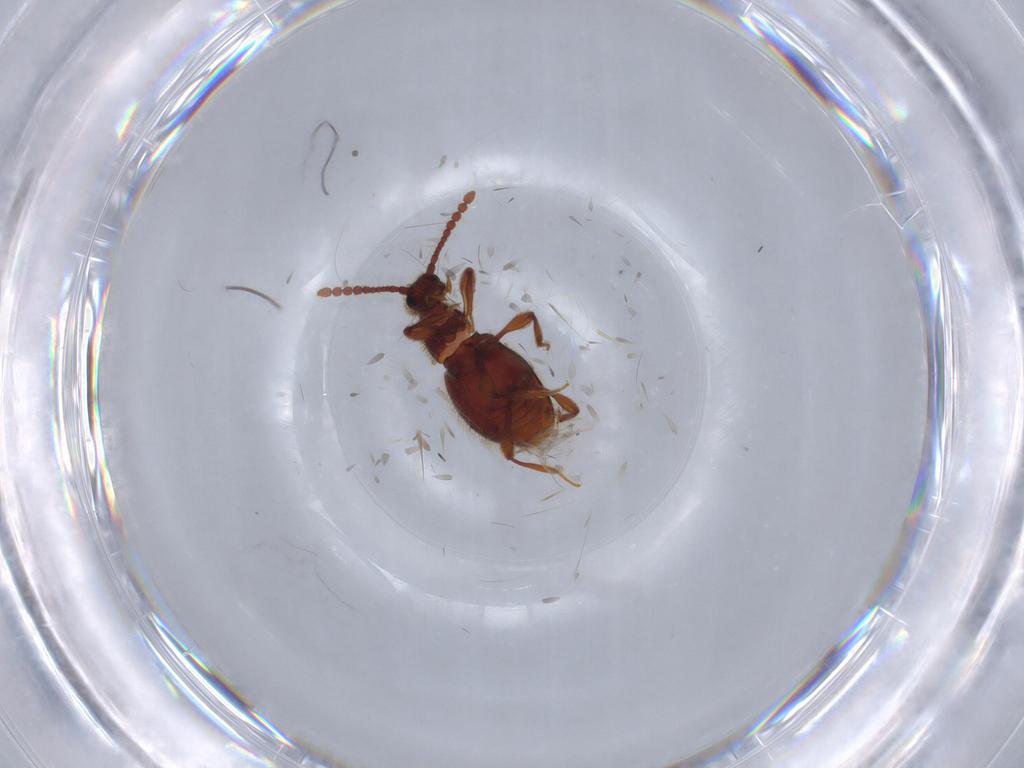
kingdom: Animalia
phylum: Arthropoda
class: Insecta
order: Coleoptera
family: Staphylinidae
